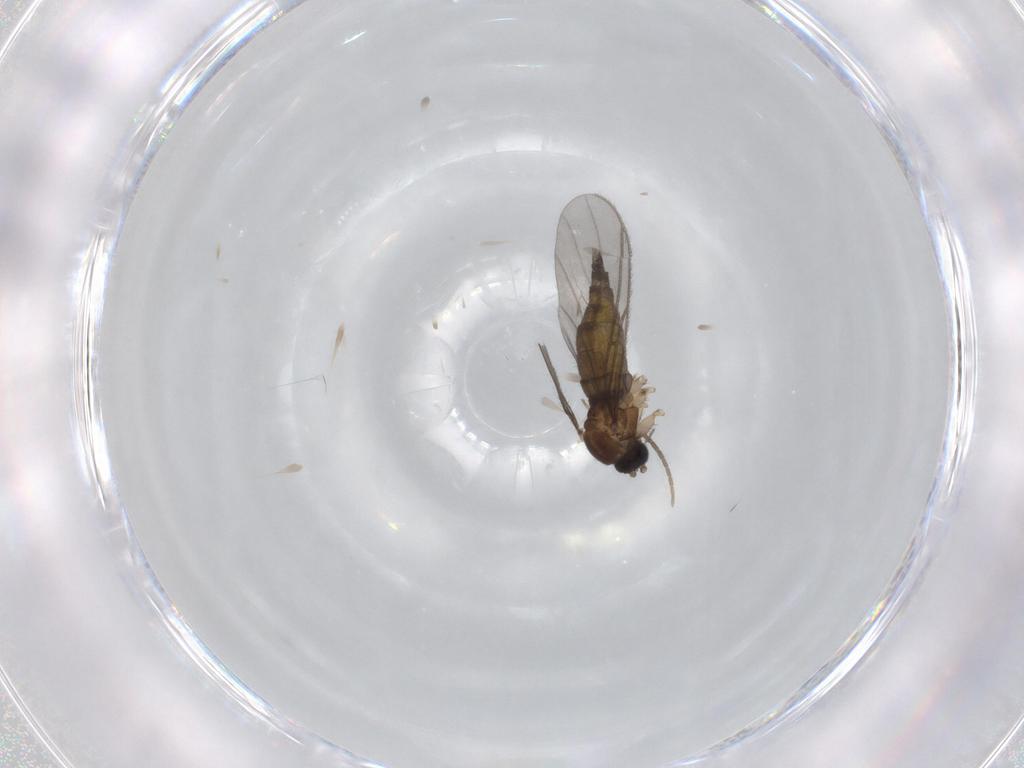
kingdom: Animalia
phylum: Arthropoda
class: Insecta
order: Diptera
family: Sciaridae
